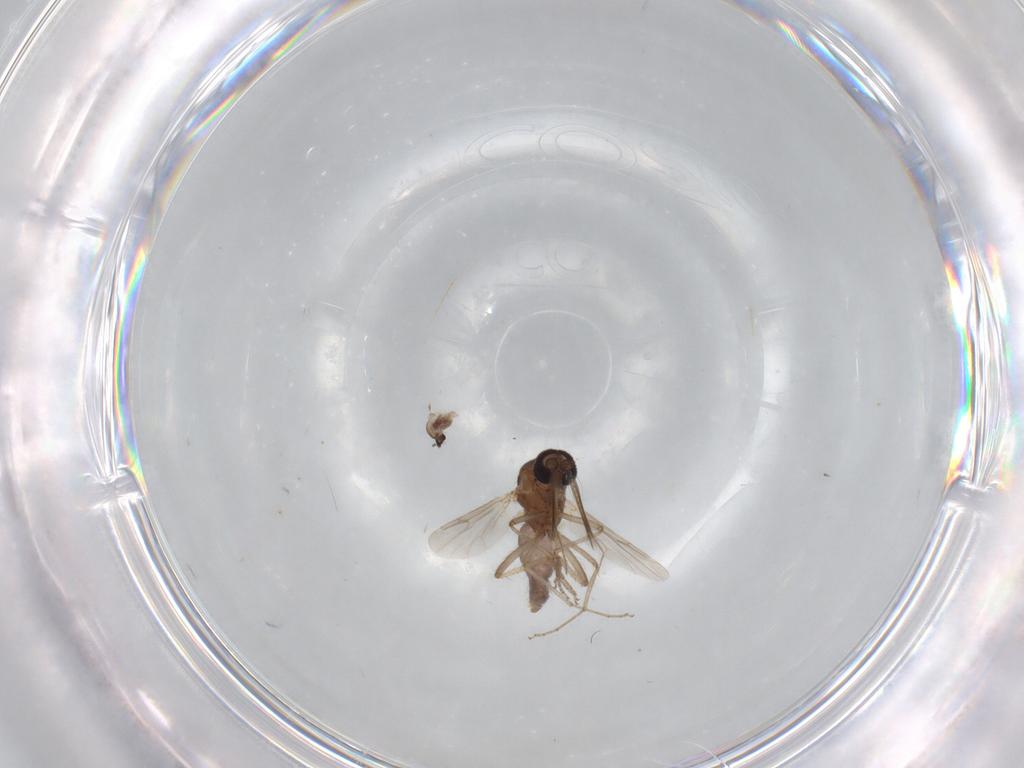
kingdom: Animalia
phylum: Arthropoda
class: Insecta
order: Diptera
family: Ceratopogonidae
